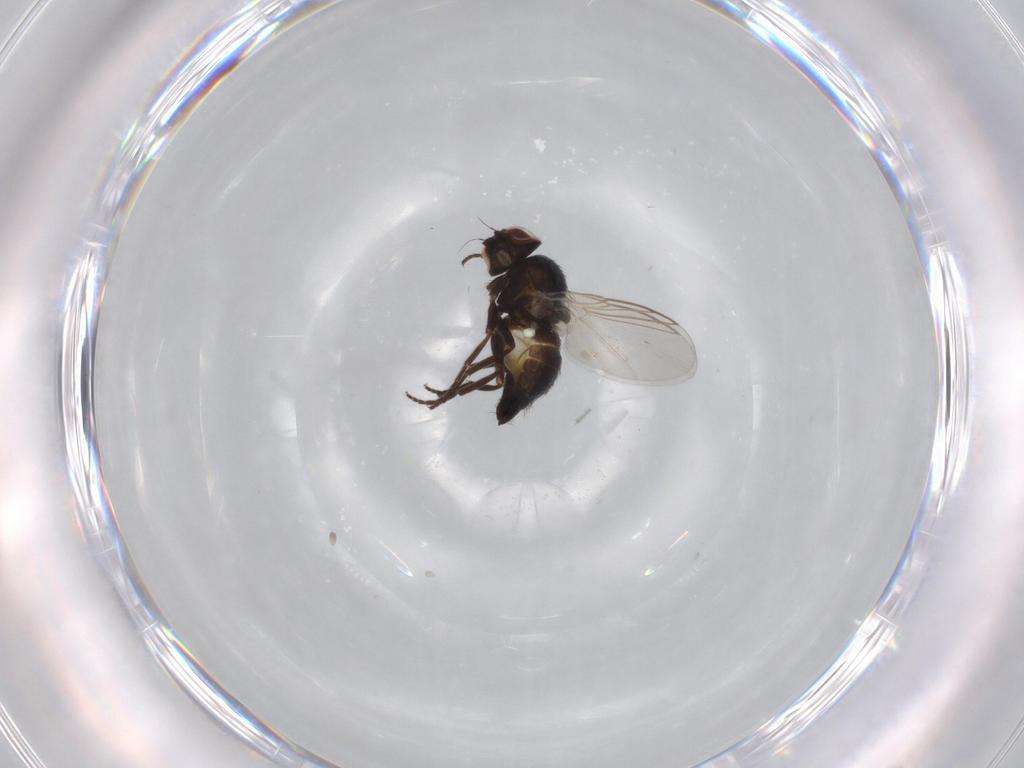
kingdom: Animalia
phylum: Arthropoda
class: Insecta
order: Diptera
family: Agromyzidae
